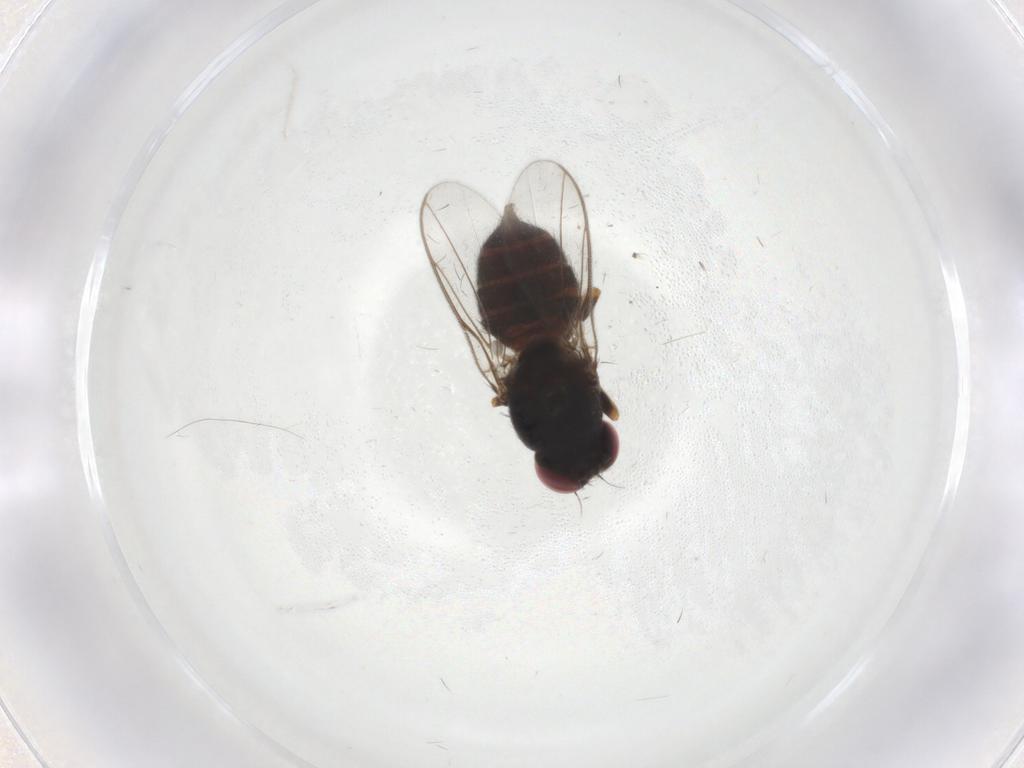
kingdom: Animalia
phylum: Arthropoda
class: Insecta
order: Diptera
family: Chloropidae
